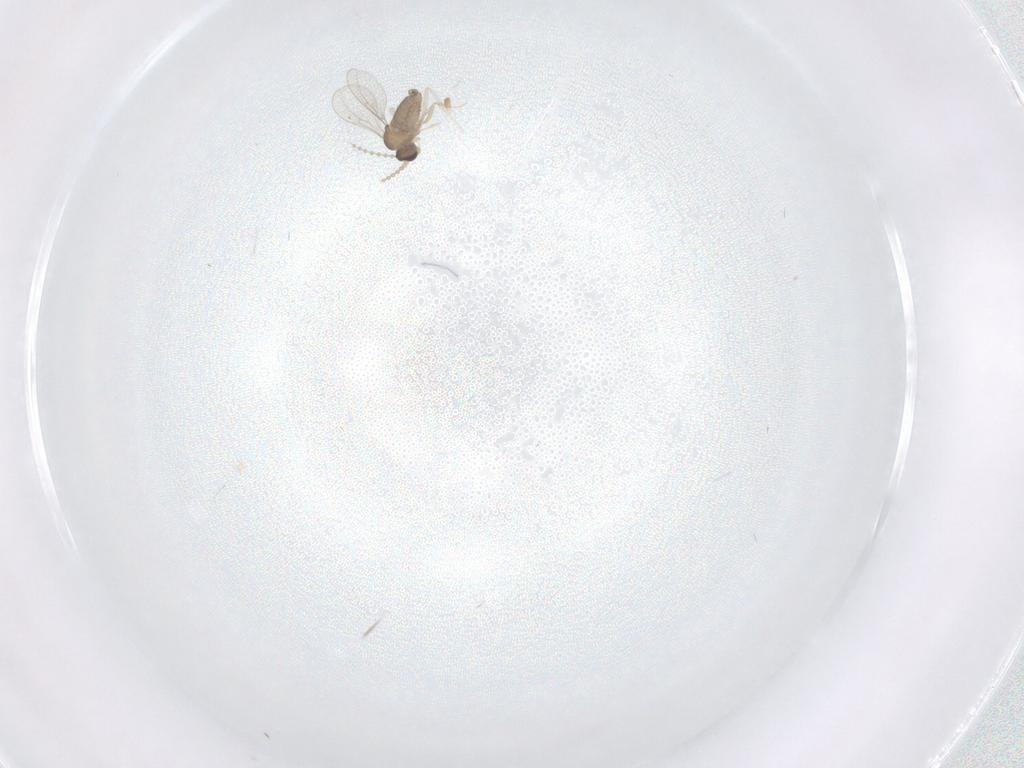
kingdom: Animalia
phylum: Arthropoda
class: Insecta
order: Diptera
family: Cecidomyiidae
